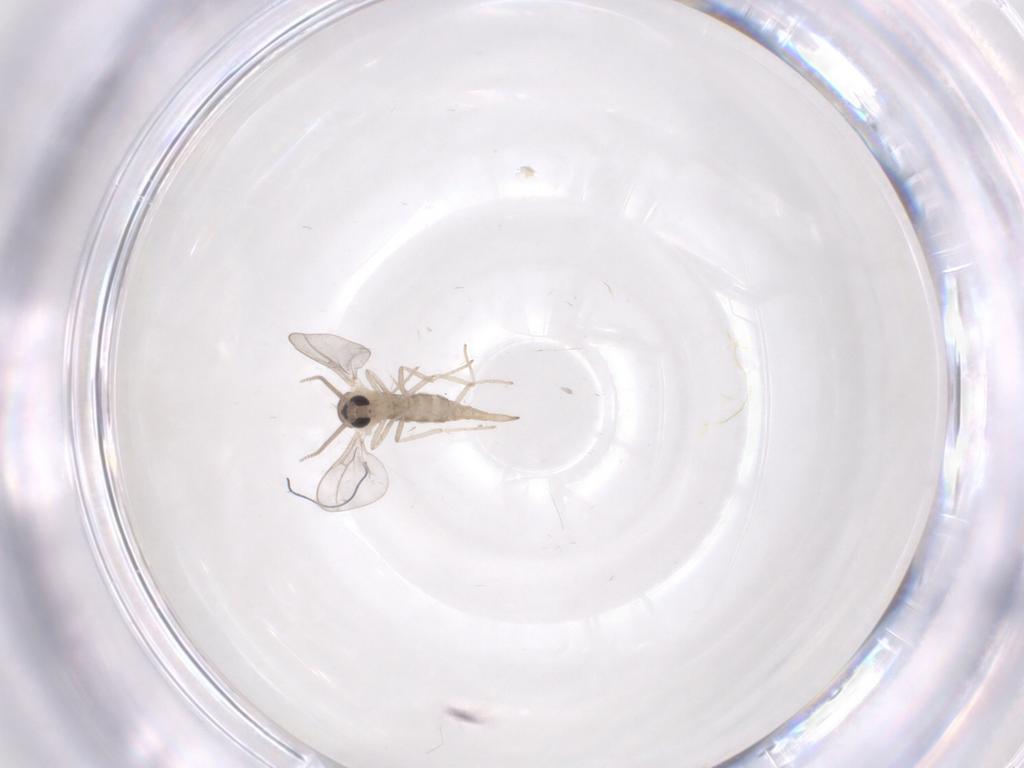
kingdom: Animalia
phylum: Arthropoda
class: Insecta
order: Diptera
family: Cecidomyiidae
